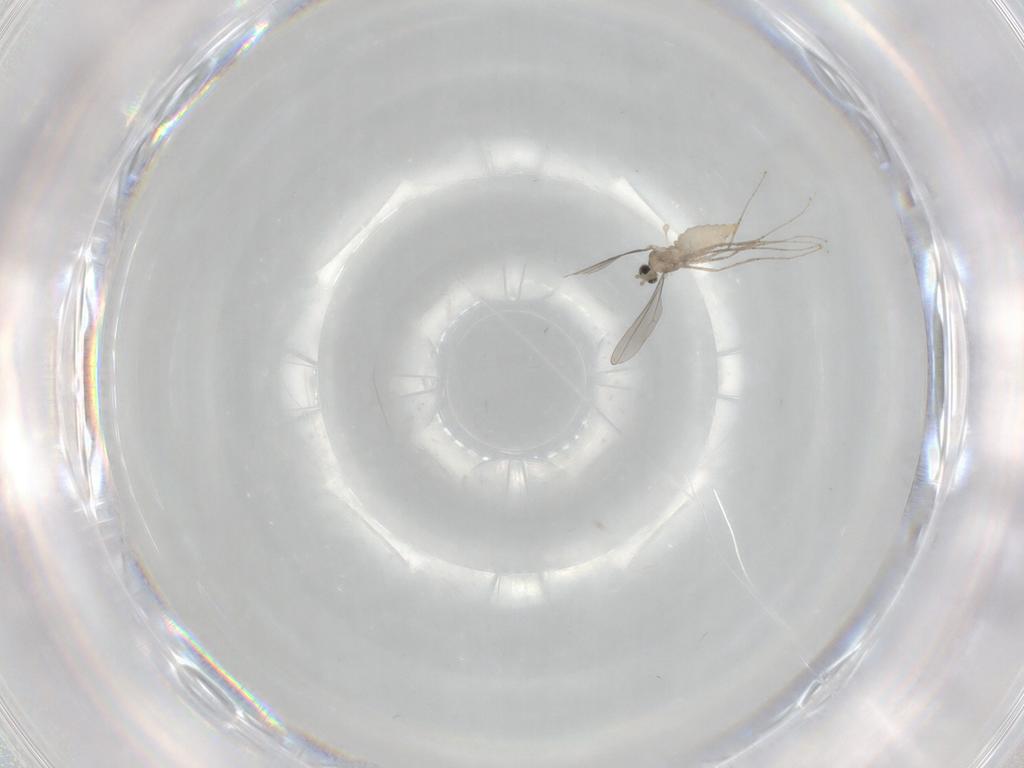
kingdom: Animalia
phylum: Arthropoda
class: Insecta
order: Diptera
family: Cecidomyiidae
